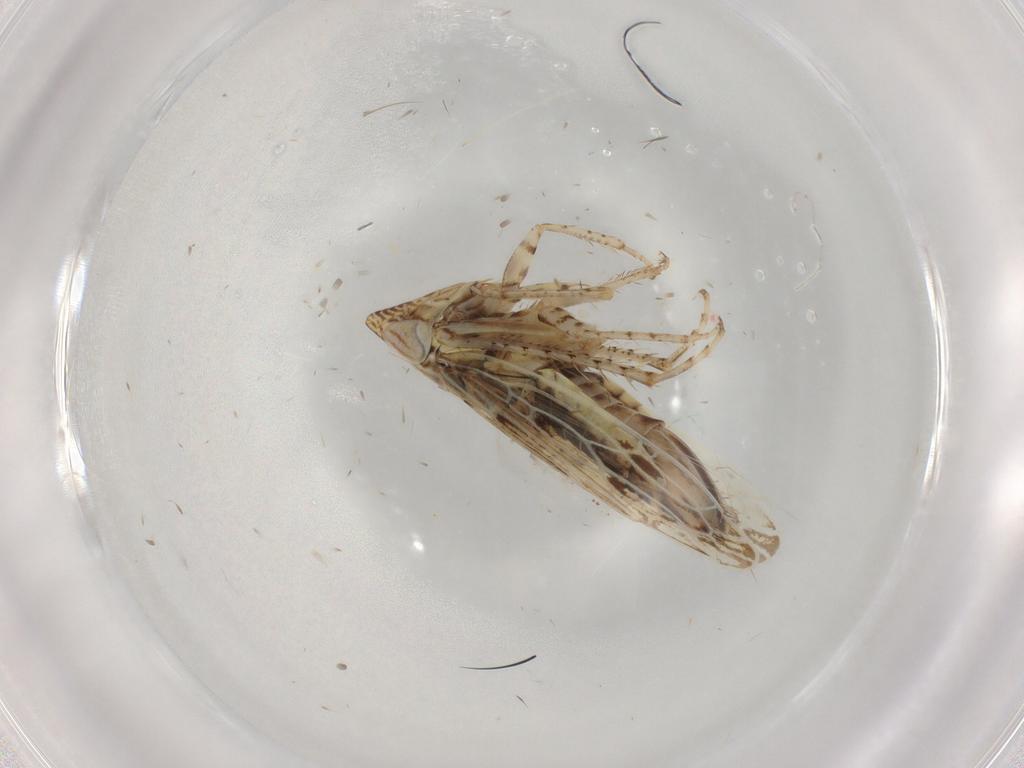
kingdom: Animalia
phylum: Arthropoda
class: Insecta
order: Hemiptera
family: Cicadellidae
